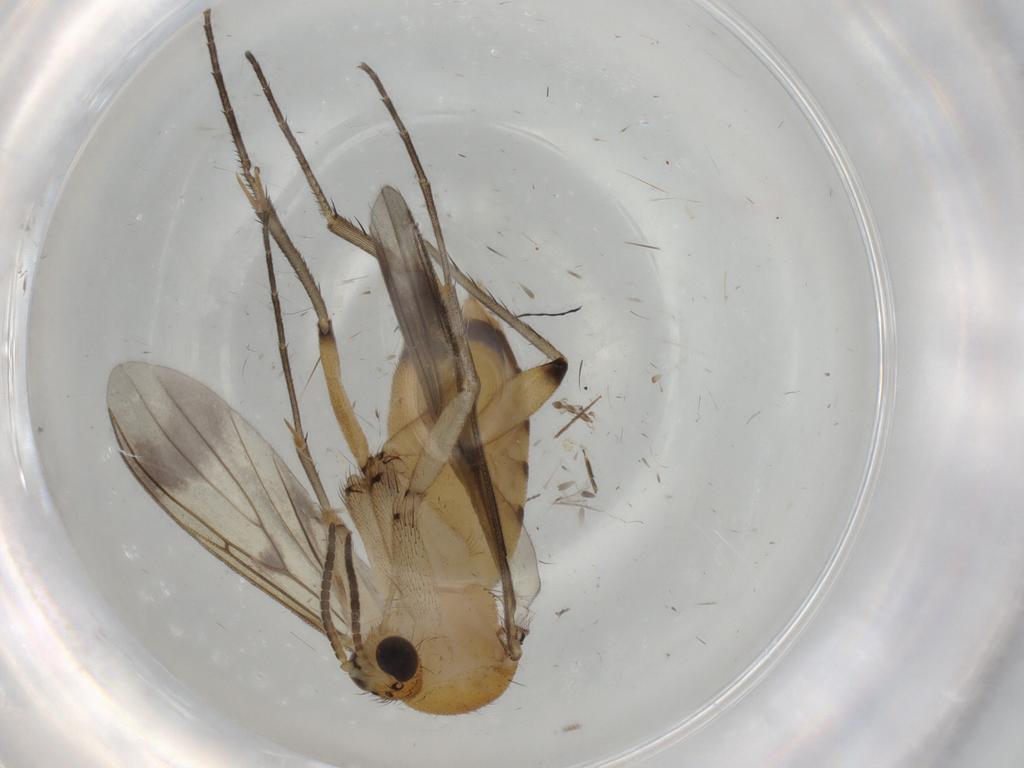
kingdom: Animalia
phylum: Arthropoda
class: Insecta
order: Diptera
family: Mycetophilidae
